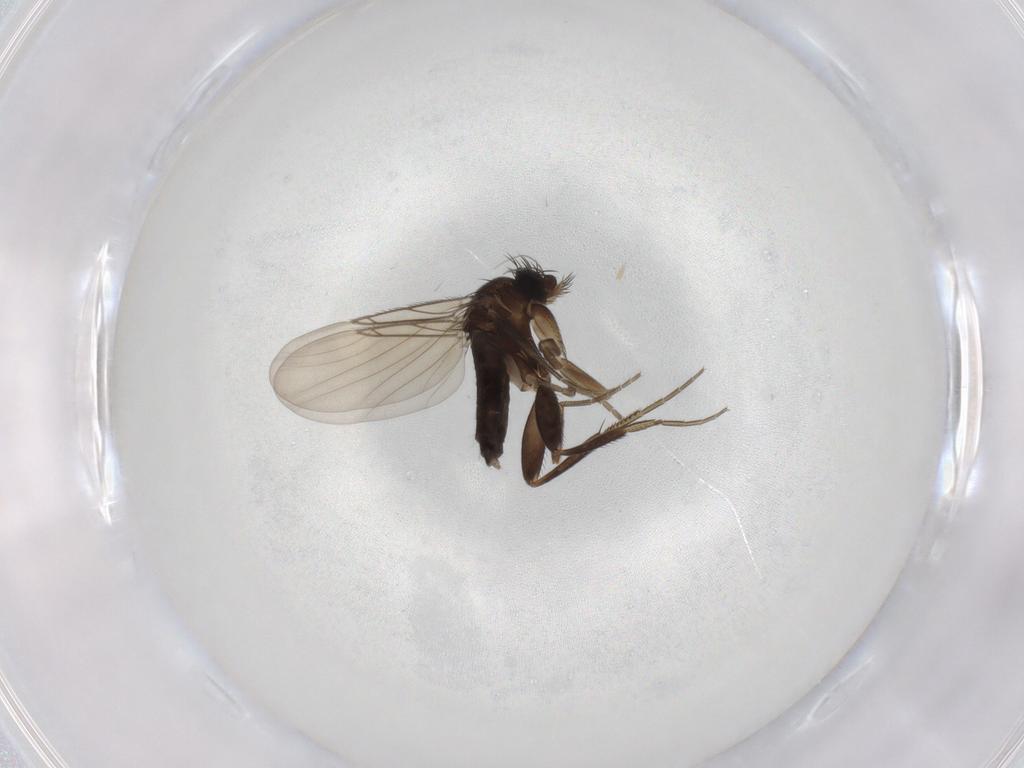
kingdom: Animalia
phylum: Arthropoda
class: Insecta
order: Diptera
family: Phoridae
